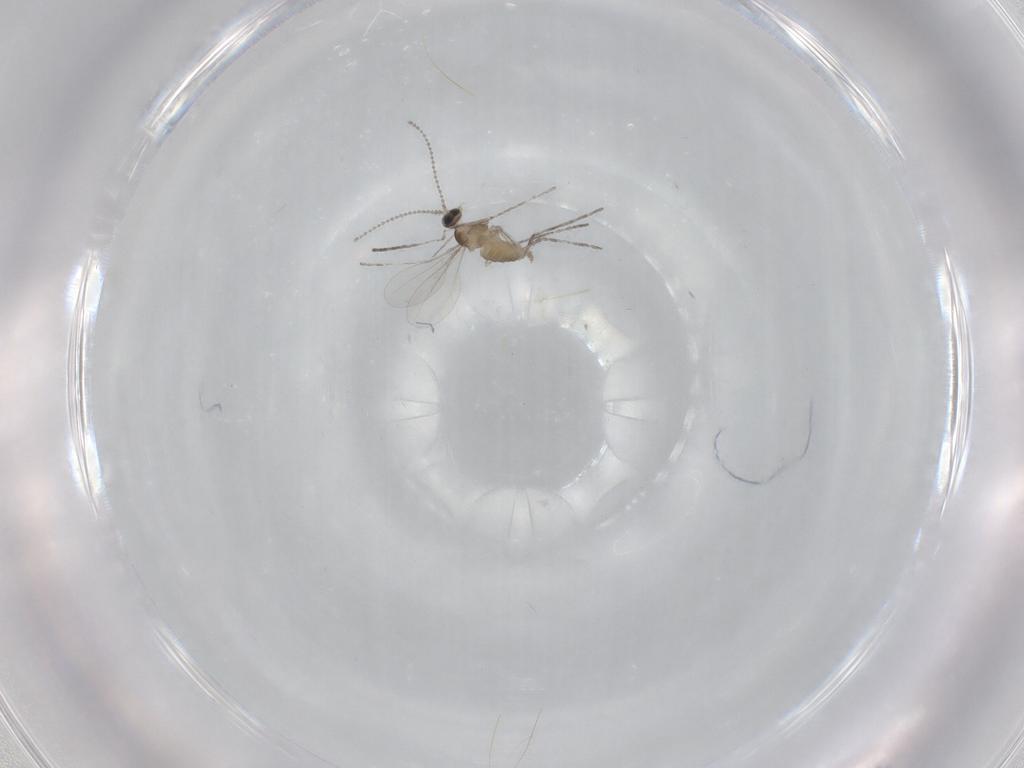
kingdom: Animalia
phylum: Arthropoda
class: Insecta
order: Diptera
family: Cecidomyiidae
